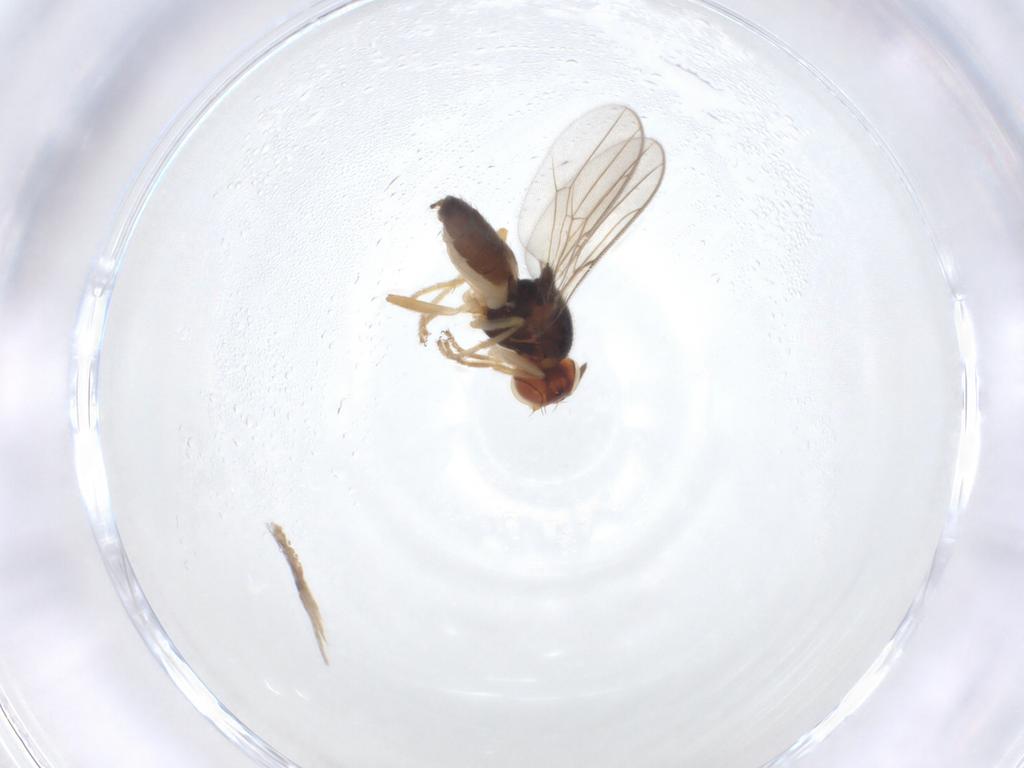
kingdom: Animalia
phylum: Arthropoda
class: Insecta
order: Diptera
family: Chloropidae
